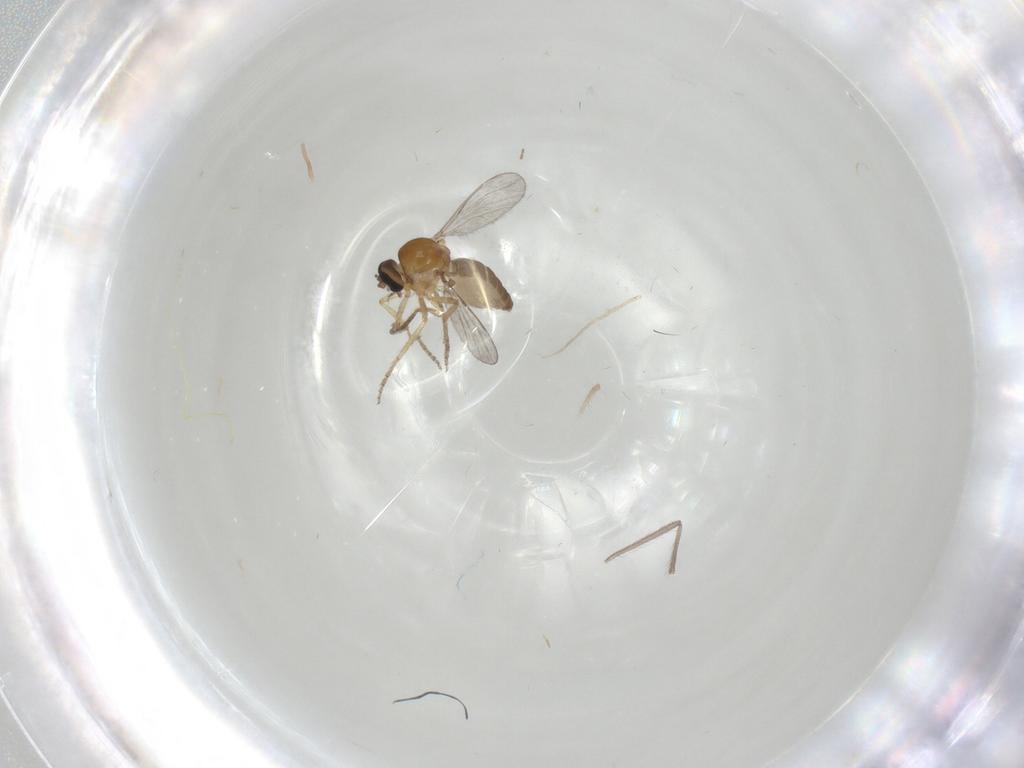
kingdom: Animalia
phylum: Arthropoda
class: Insecta
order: Diptera
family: Chironomidae
